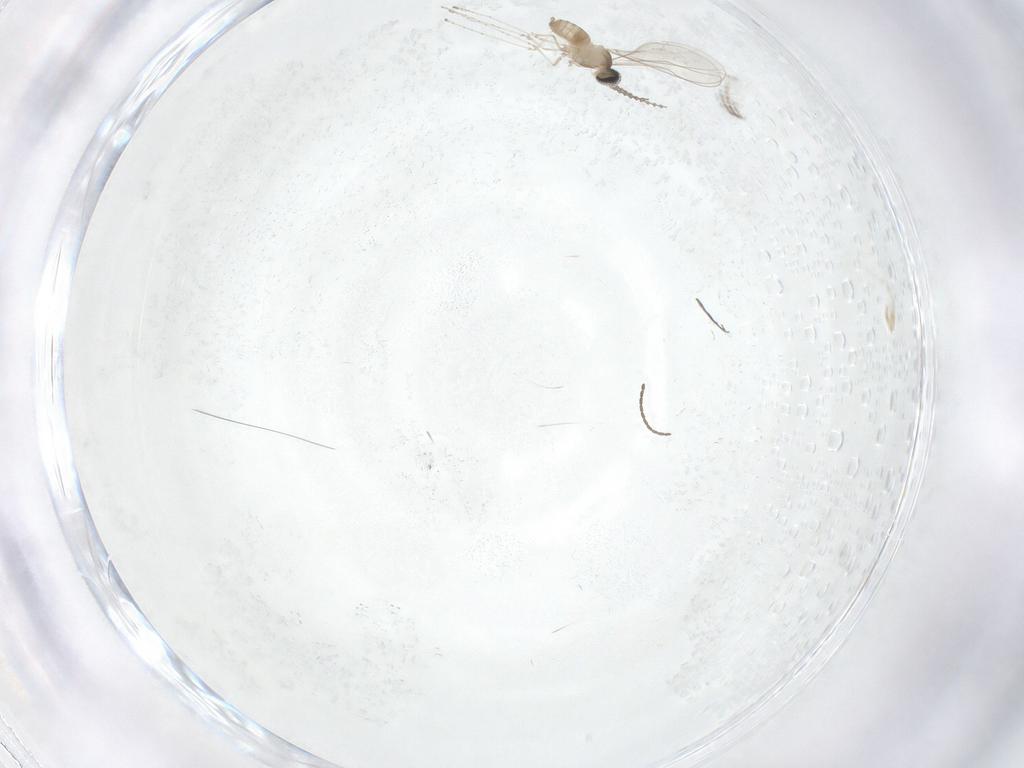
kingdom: Animalia
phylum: Arthropoda
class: Insecta
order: Diptera
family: Cecidomyiidae
